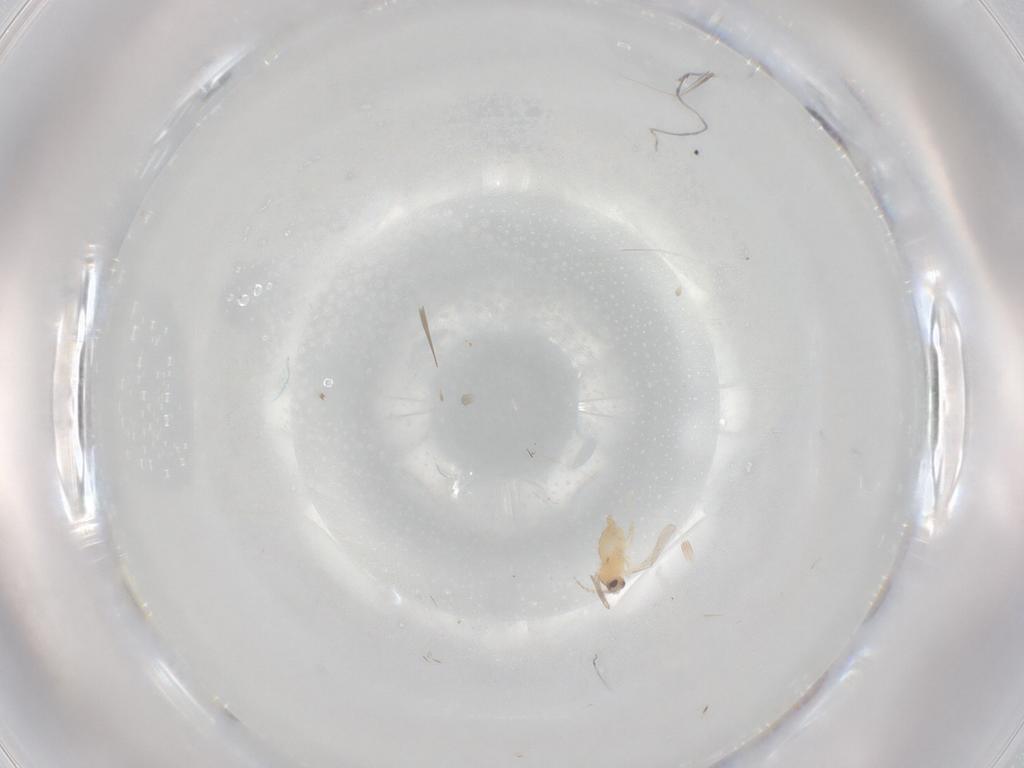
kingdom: Animalia
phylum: Arthropoda
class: Insecta
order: Diptera
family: Cecidomyiidae
